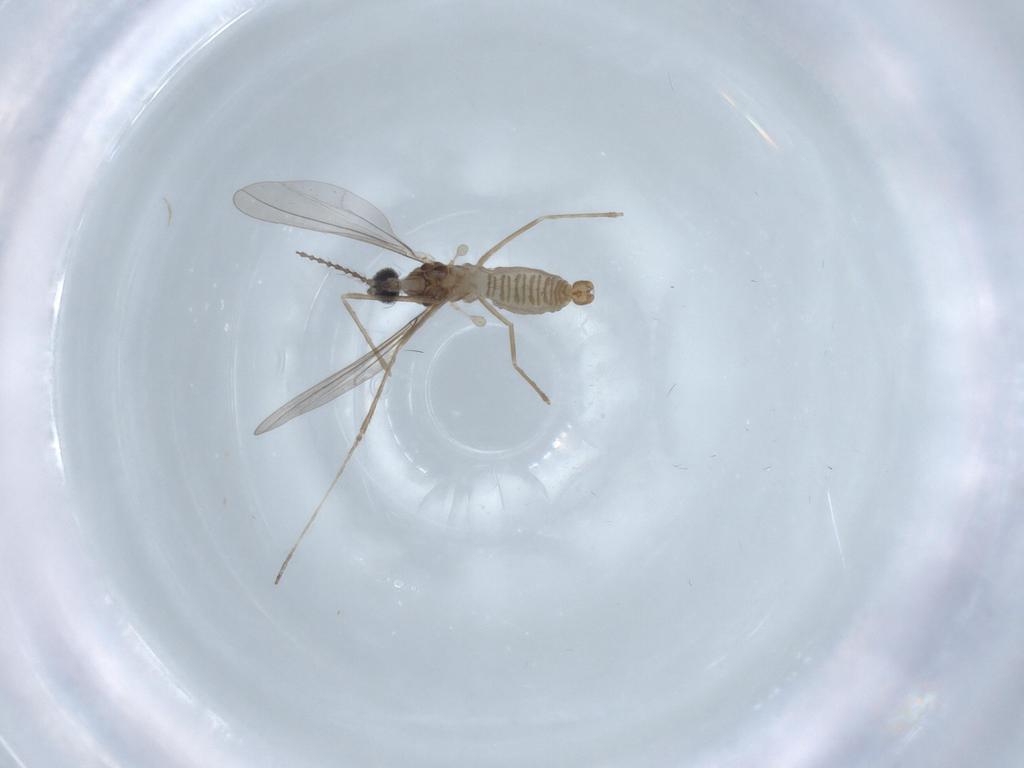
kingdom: Animalia
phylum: Arthropoda
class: Insecta
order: Diptera
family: Cecidomyiidae
